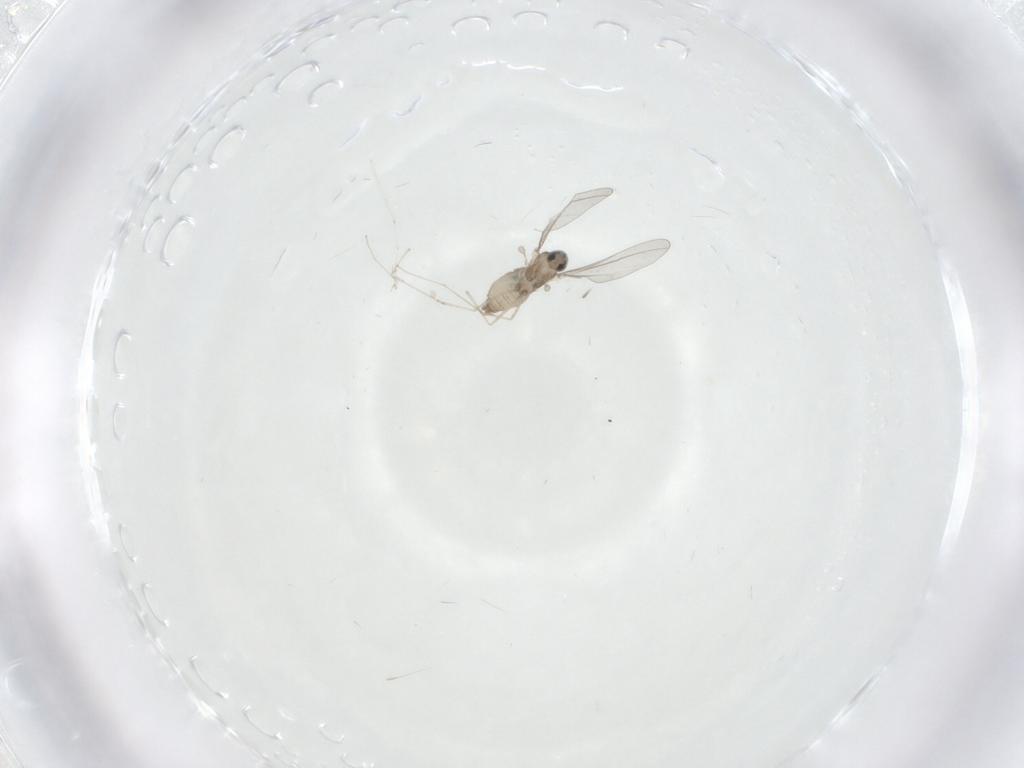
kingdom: Animalia
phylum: Arthropoda
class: Insecta
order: Diptera
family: Cecidomyiidae
